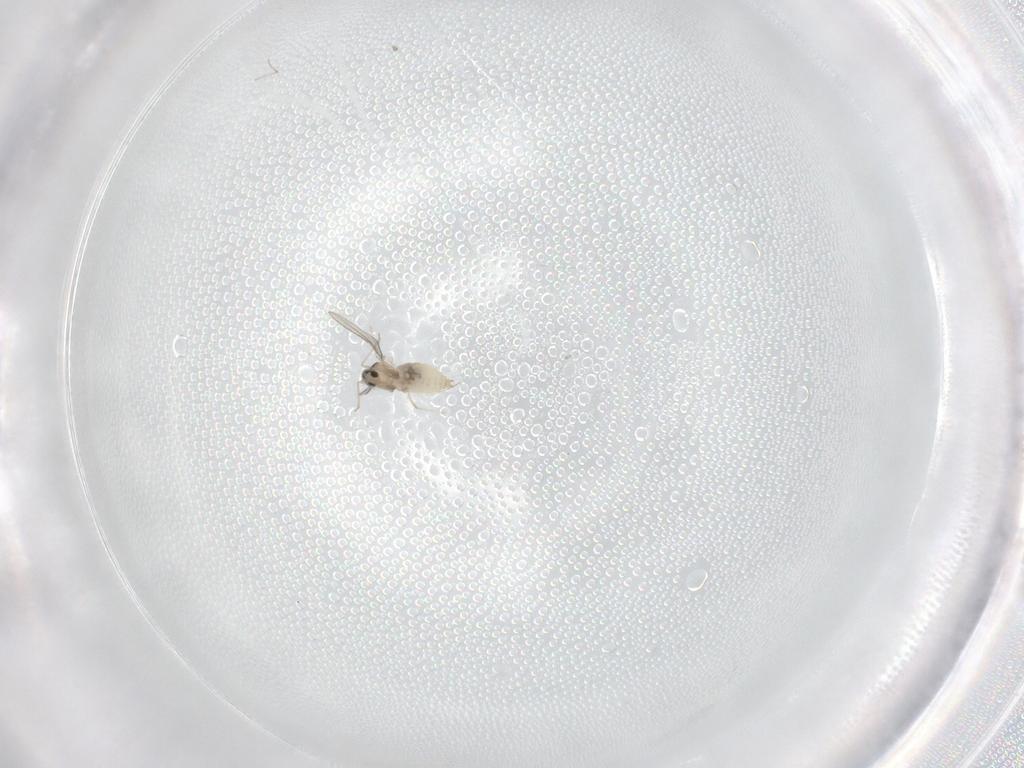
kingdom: Animalia
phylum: Arthropoda
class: Insecta
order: Diptera
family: Cecidomyiidae
